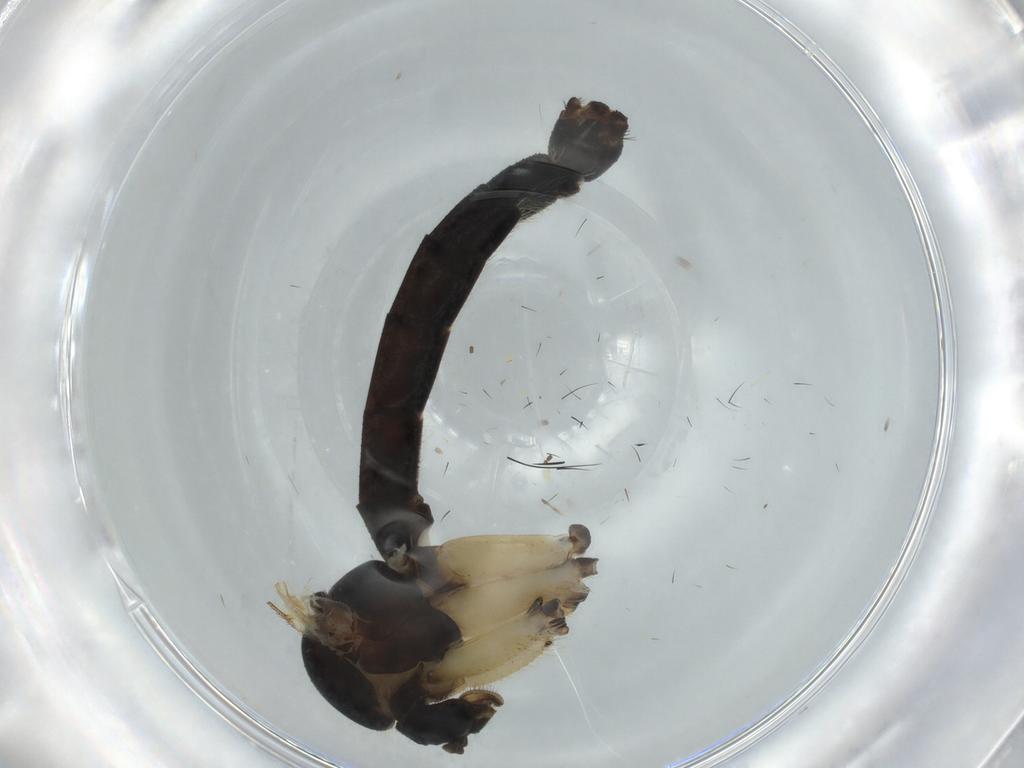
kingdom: Animalia
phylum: Arthropoda
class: Insecta
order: Diptera
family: Phoridae
